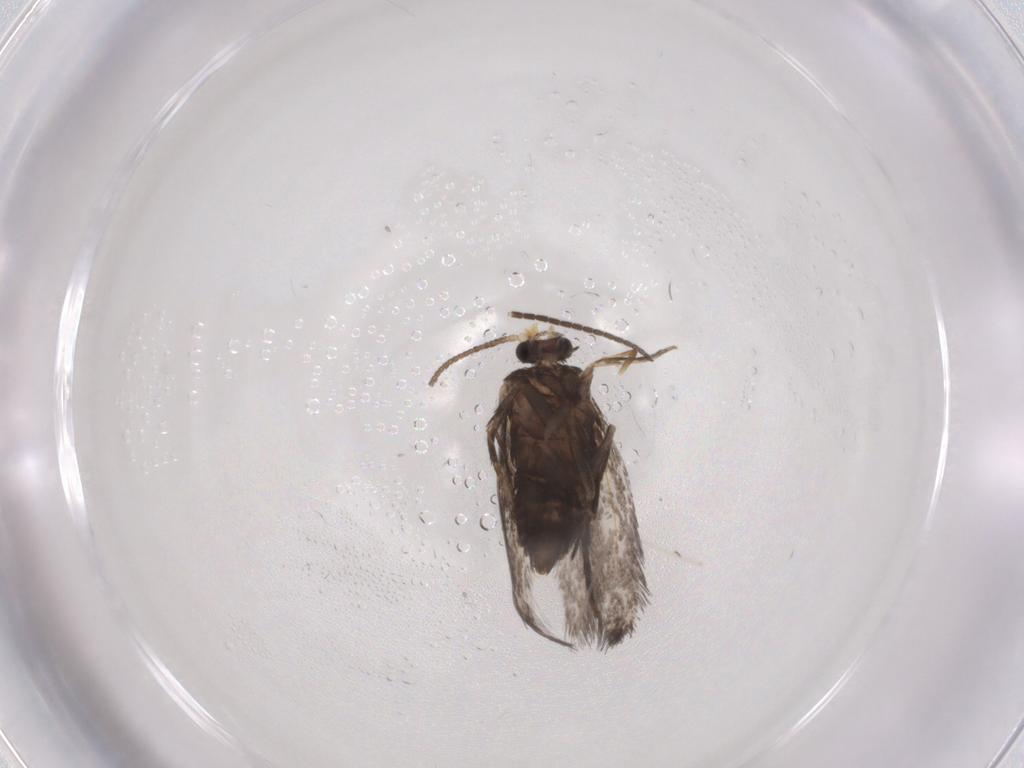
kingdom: Animalia
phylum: Arthropoda
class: Insecta
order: Lepidoptera
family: Nepticulidae
